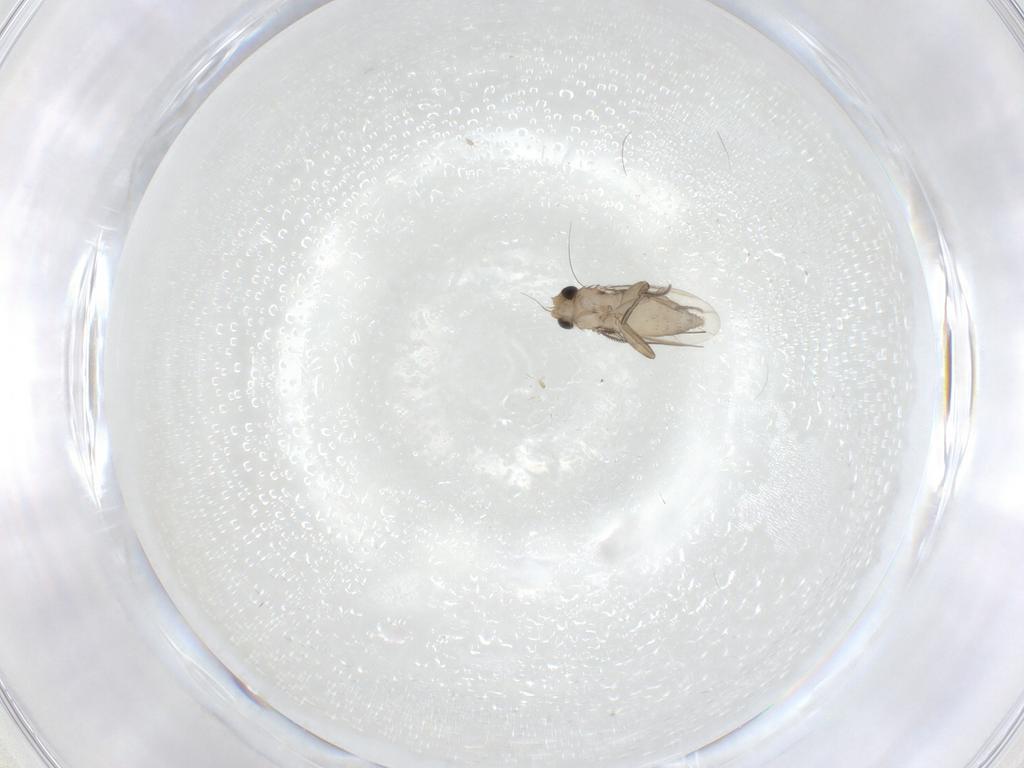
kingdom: Animalia
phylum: Arthropoda
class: Insecta
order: Diptera
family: Phoridae
